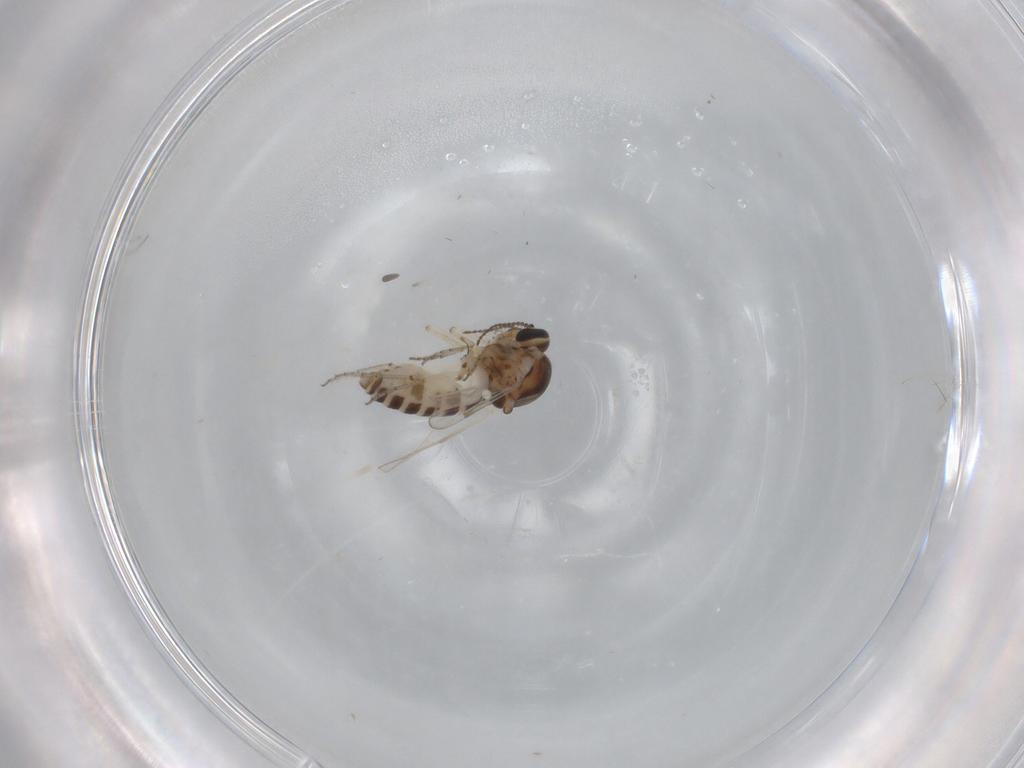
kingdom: Animalia
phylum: Arthropoda
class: Insecta
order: Diptera
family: Ceratopogonidae
